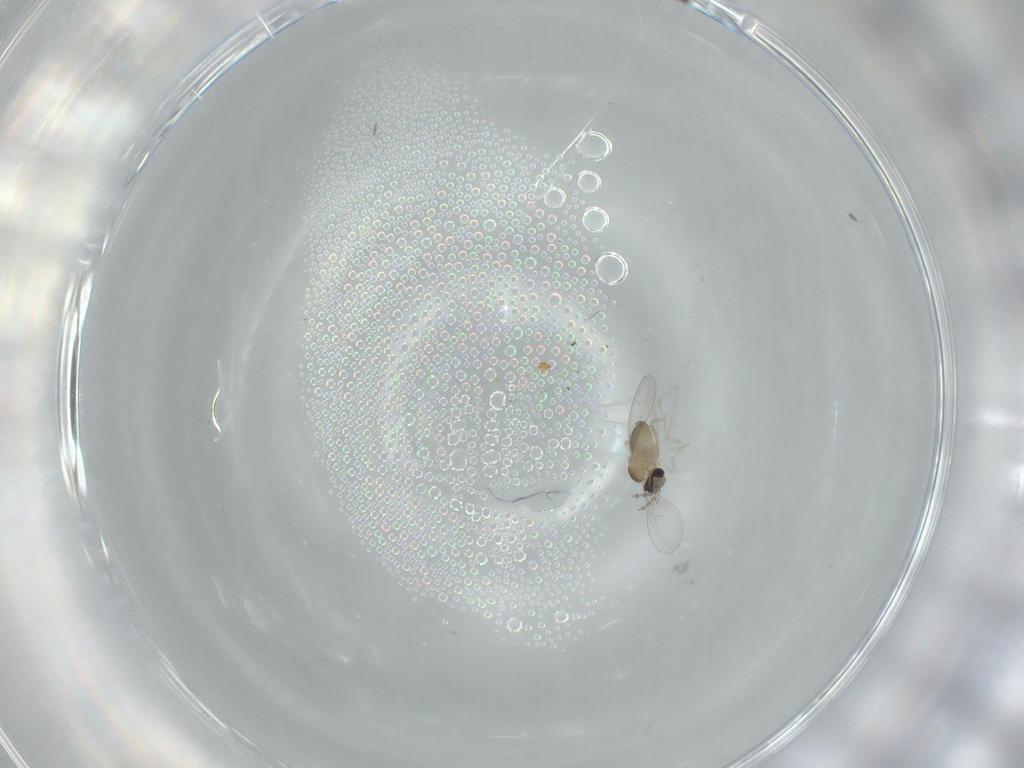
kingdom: Animalia
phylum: Arthropoda
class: Insecta
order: Diptera
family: Cecidomyiidae
